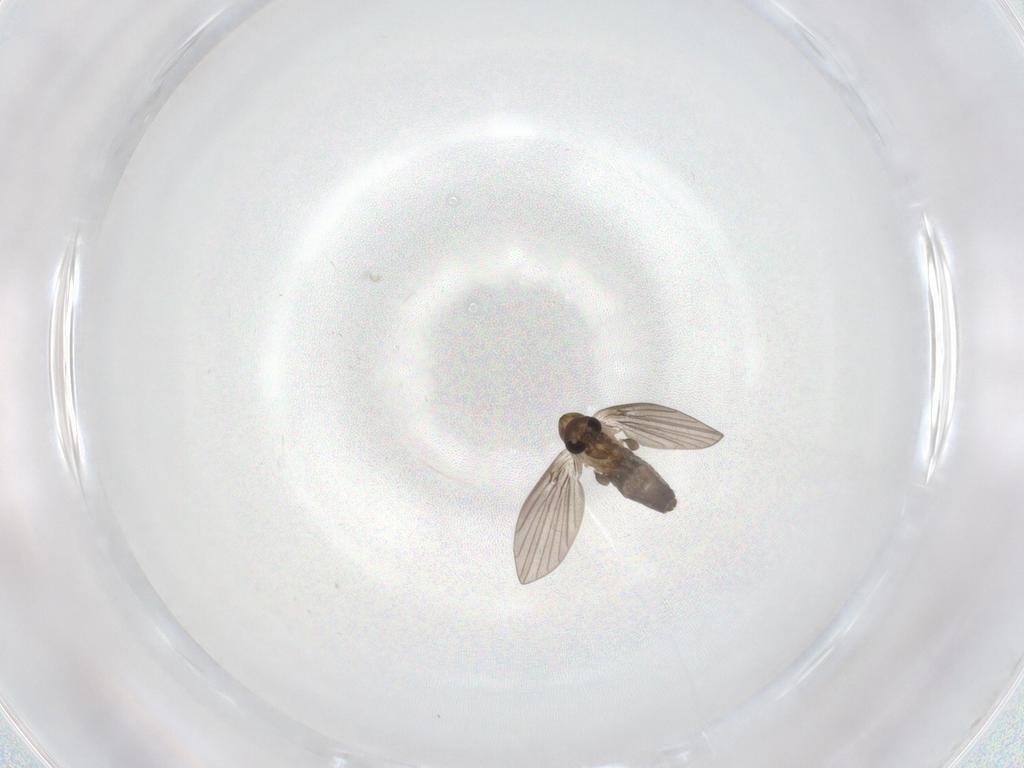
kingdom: Animalia
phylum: Arthropoda
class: Insecta
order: Diptera
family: Psychodidae
